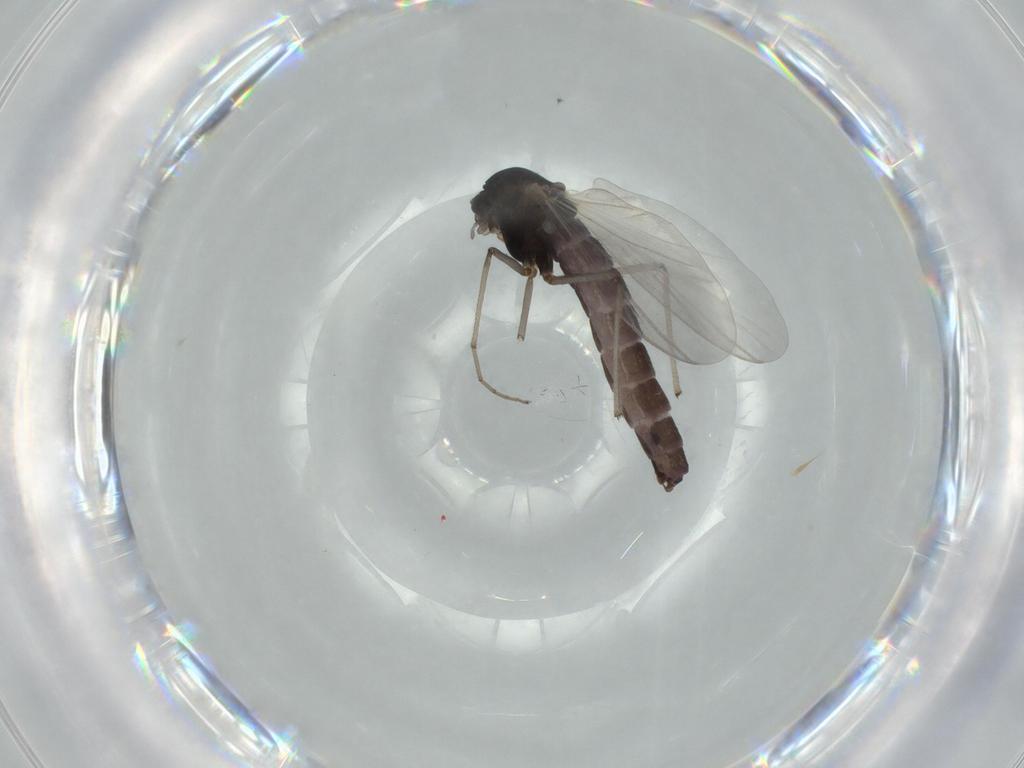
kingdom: Animalia
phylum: Arthropoda
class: Insecta
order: Diptera
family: Chironomidae
